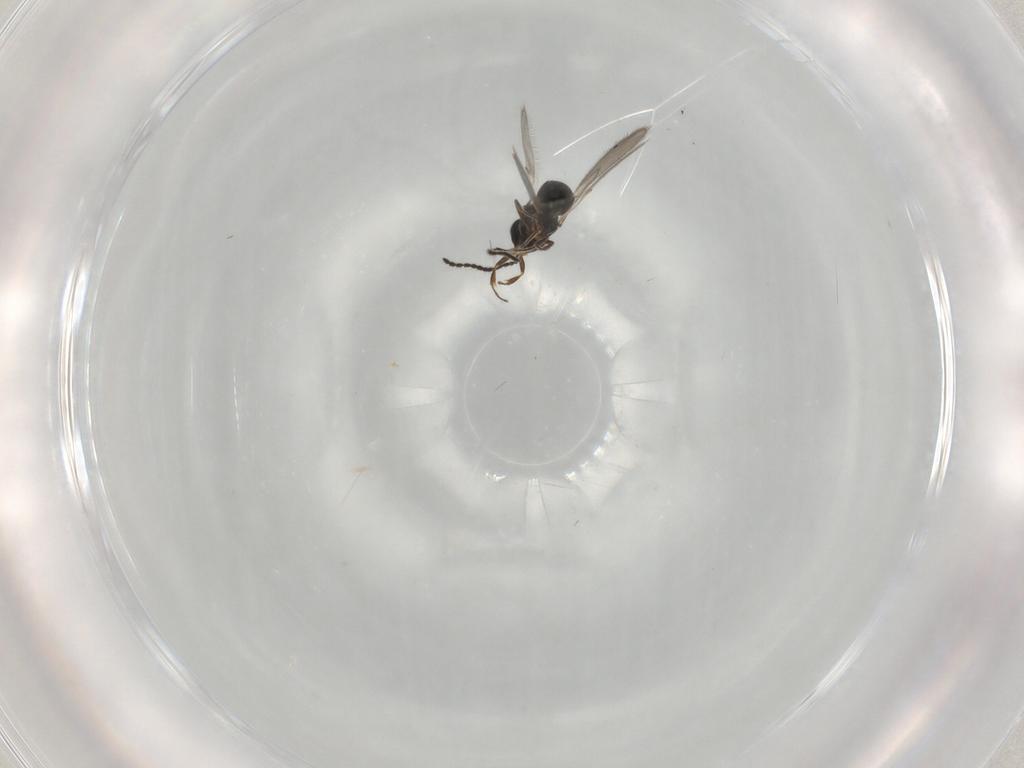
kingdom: Animalia
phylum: Arthropoda
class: Insecta
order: Hymenoptera
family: Scelionidae
